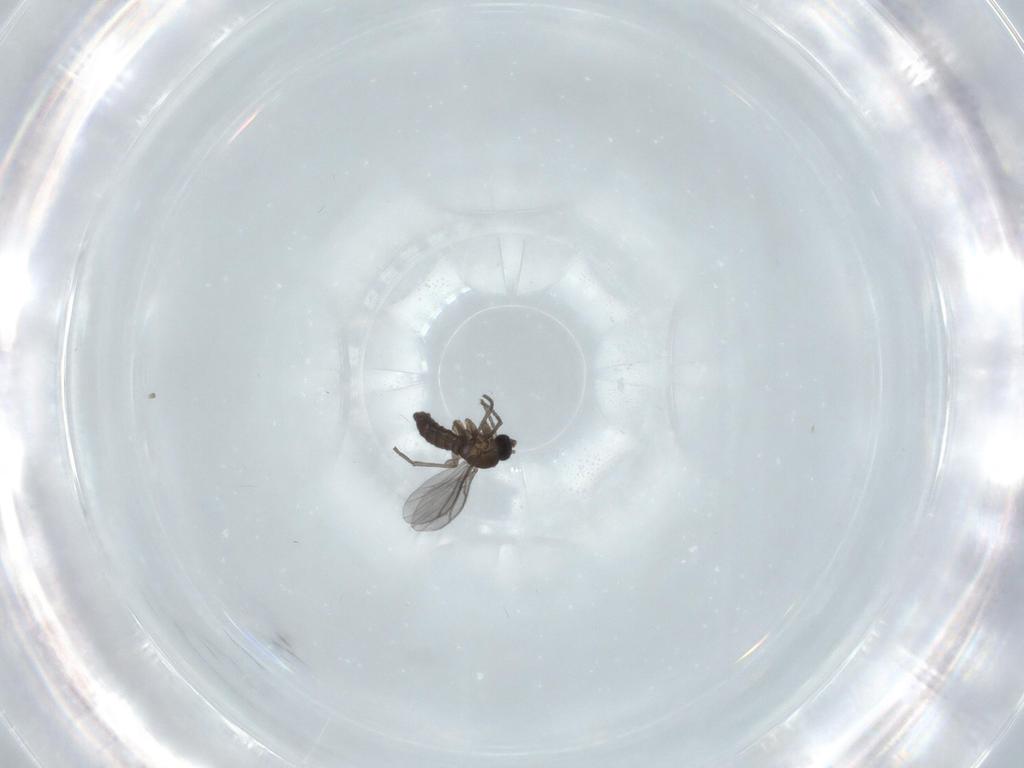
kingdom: Animalia
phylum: Arthropoda
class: Insecta
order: Diptera
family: Cecidomyiidae
